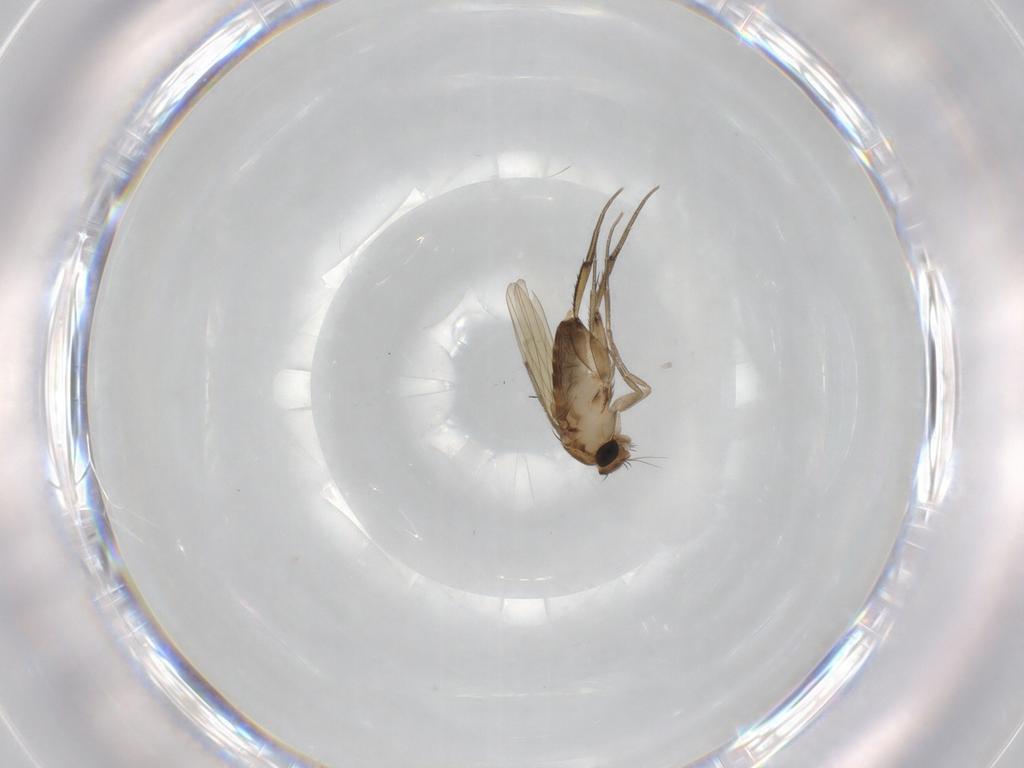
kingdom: Animalia
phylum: Arthropoda
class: Insecta
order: Diptera
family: Phoridae
